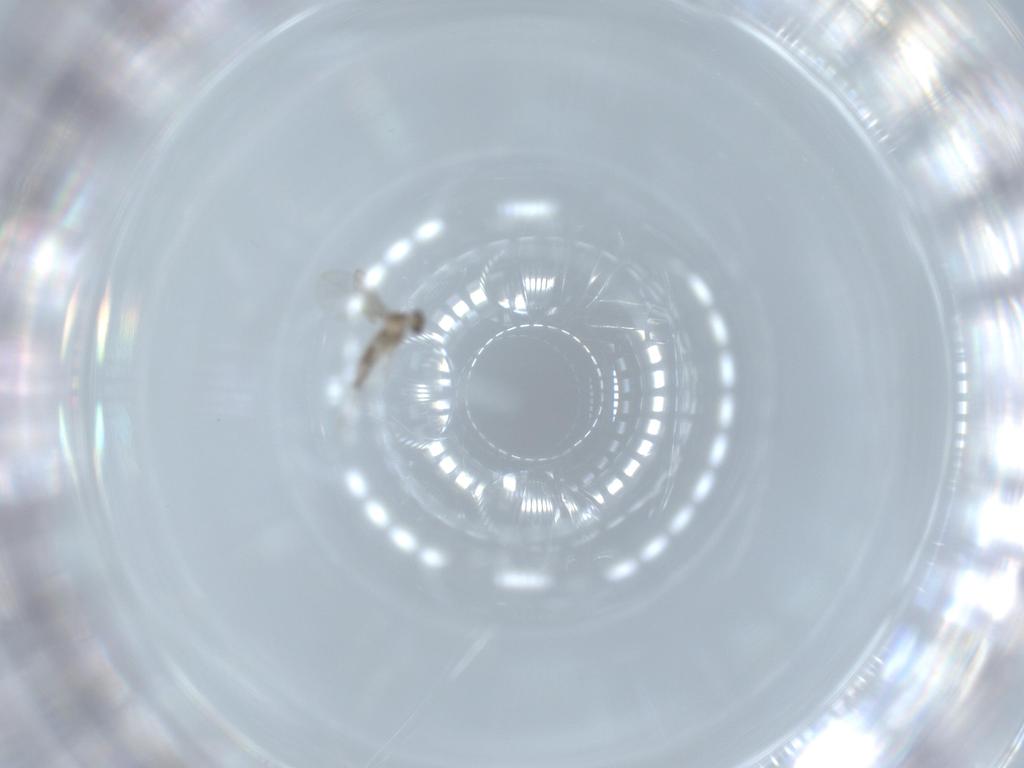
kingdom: Animalia
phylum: Arthropoda
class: Insecta
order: Diptera
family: Cecidomyiidae
